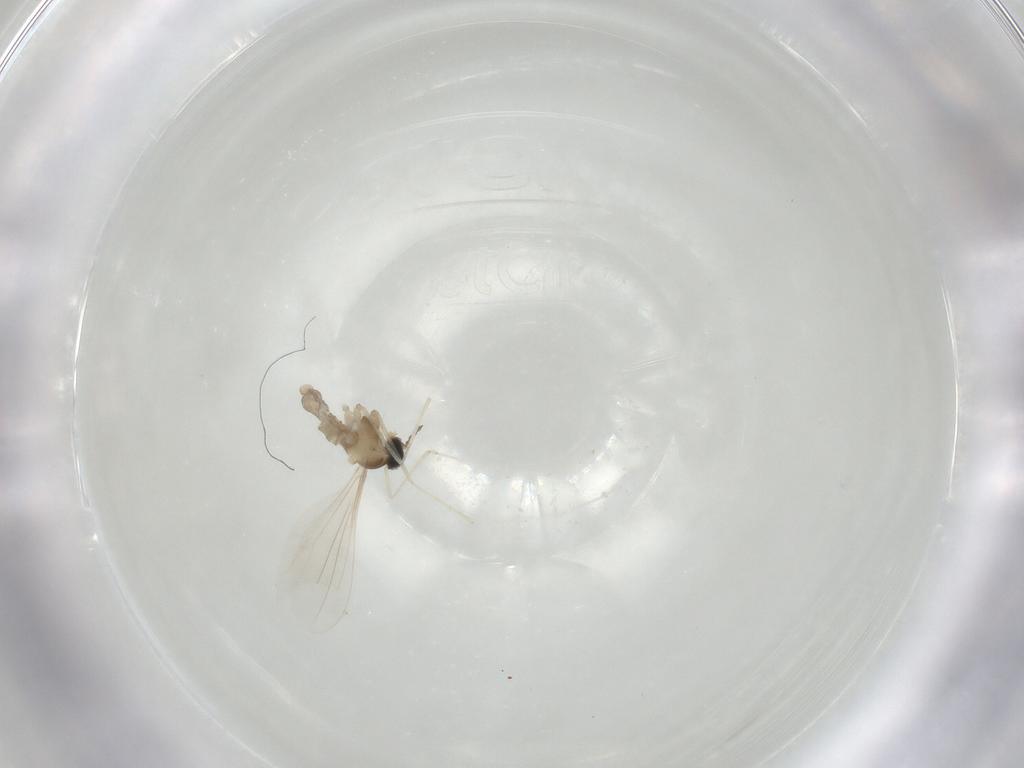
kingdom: Animalia
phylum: Arthropoda
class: Insecta
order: Diptera
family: Cecidomyiidae
